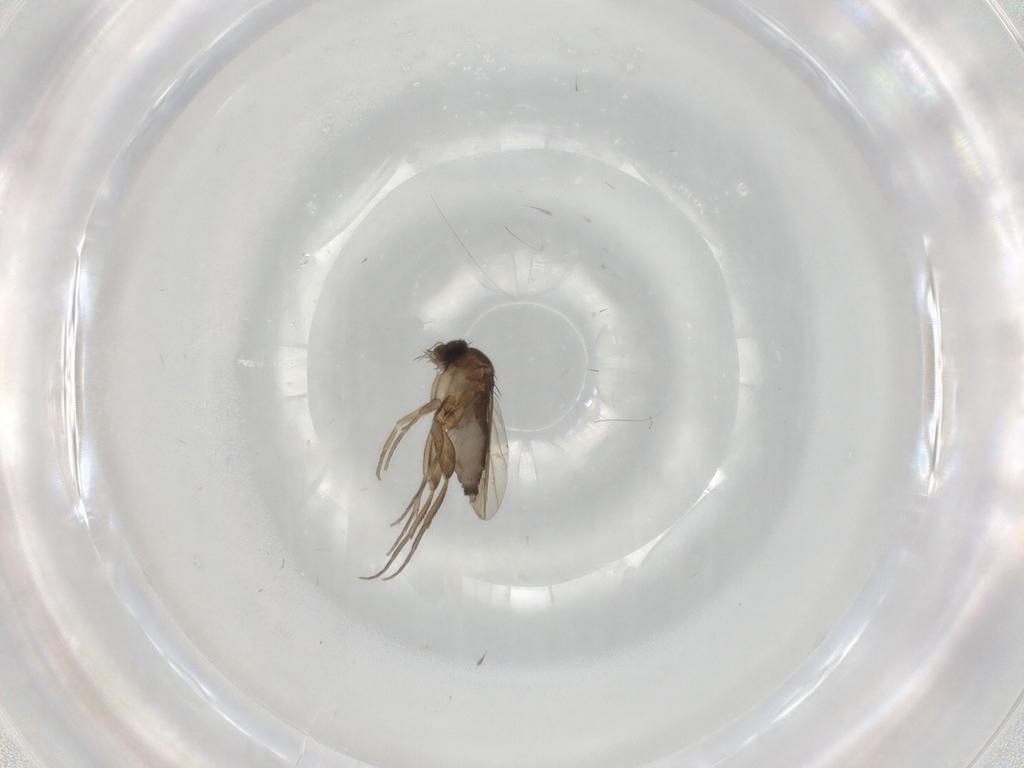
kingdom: Animalia
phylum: Arthropoda
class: Insecta
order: Diptera
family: Phoridae
